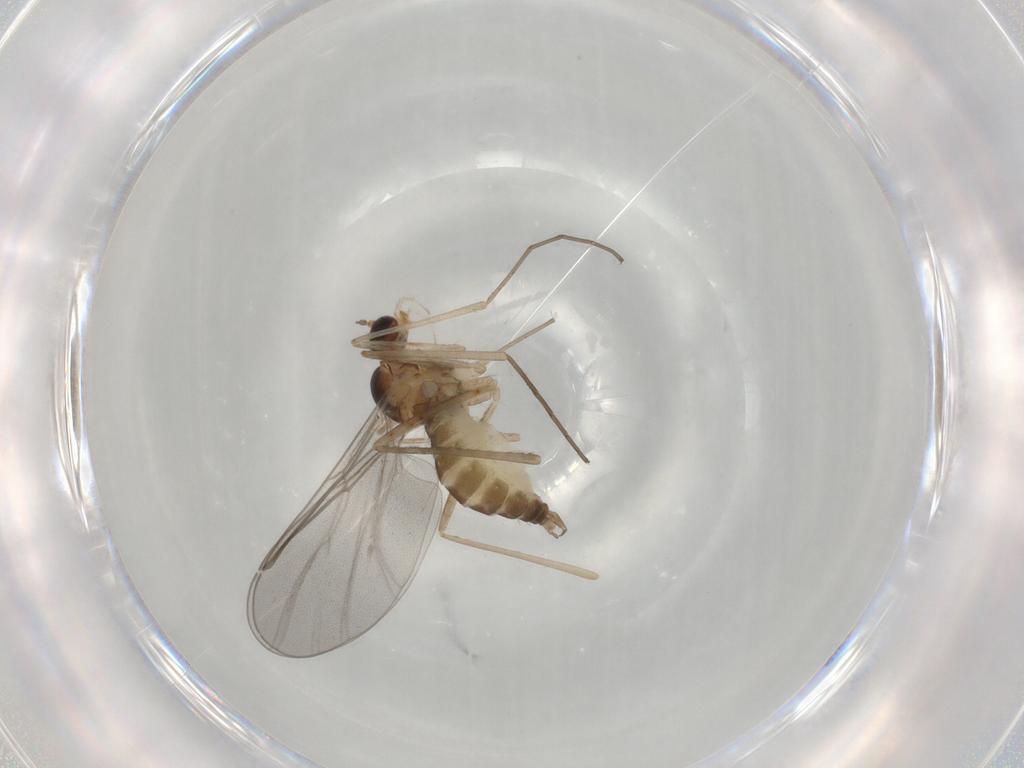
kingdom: Animalia
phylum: Arthropoda
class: Insecta
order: Diptera
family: Cecidomyiidae
